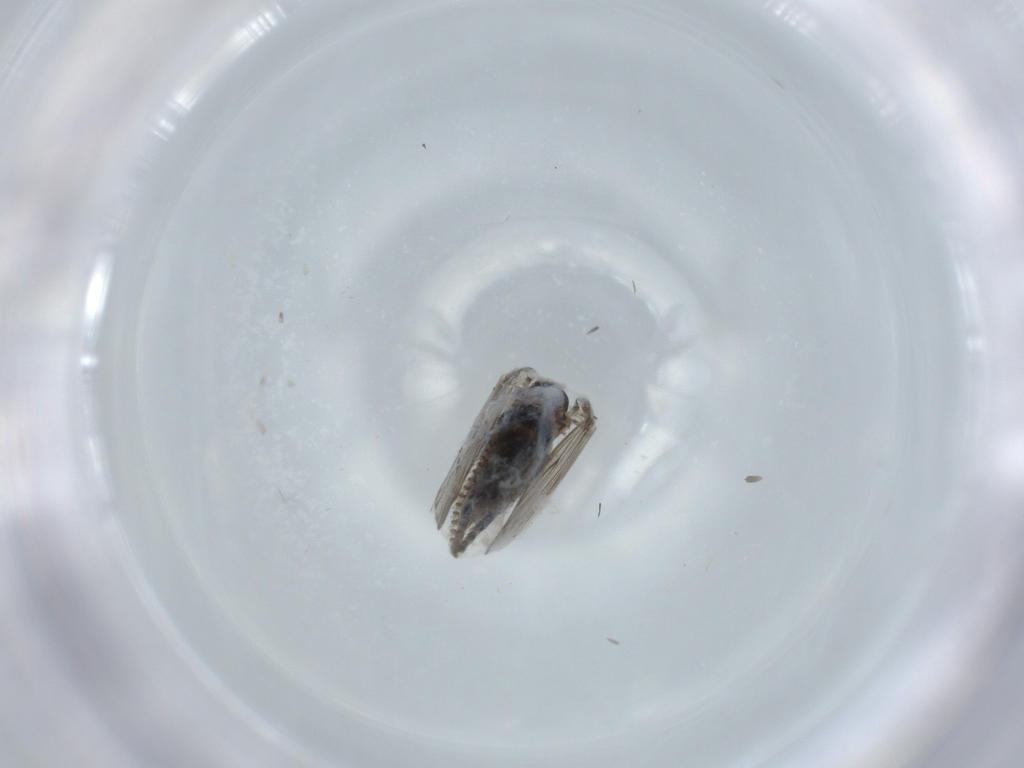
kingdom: Animalia
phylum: Arthropoda
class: Insecta
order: Diptera
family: Psychodidae
